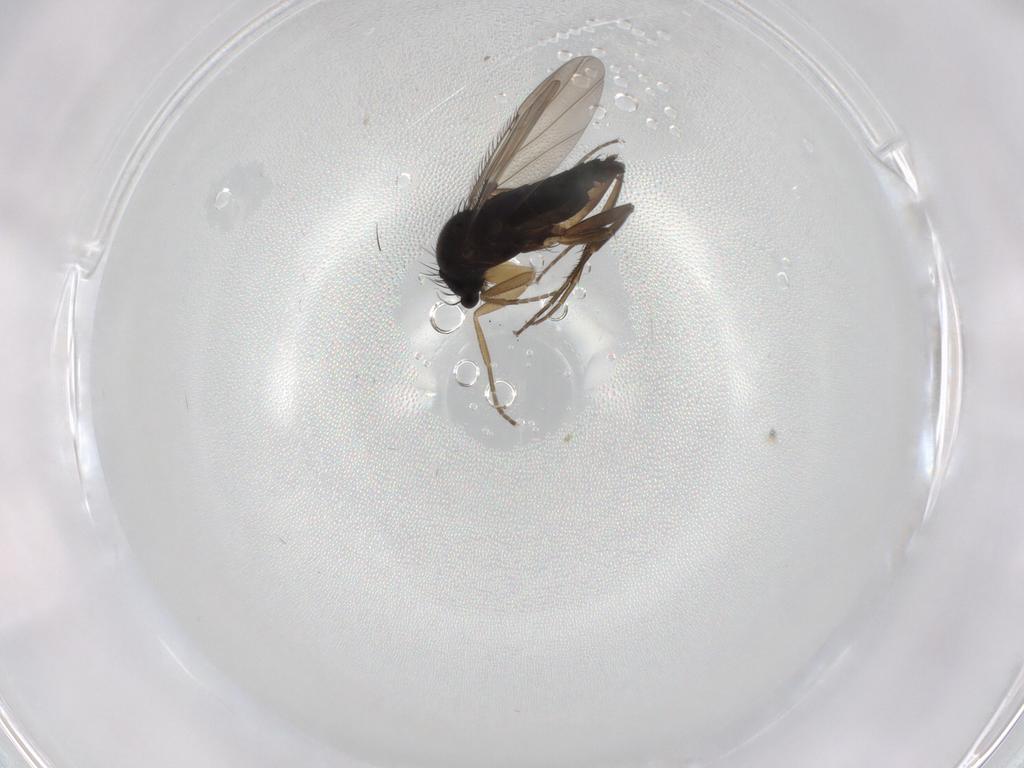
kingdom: Animalia
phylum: Arthropoda
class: Insecta
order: Diptera
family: Phoridae
